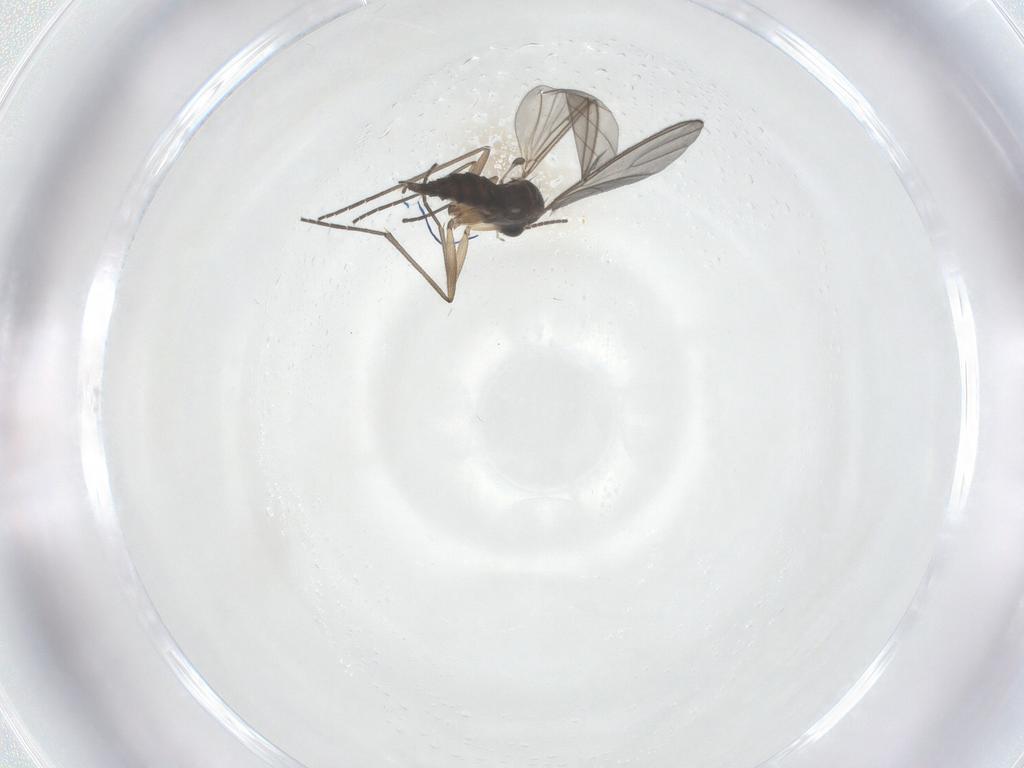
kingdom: Animalia
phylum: Arthropoda
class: Insecta
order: Diptera
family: Sciaridae
